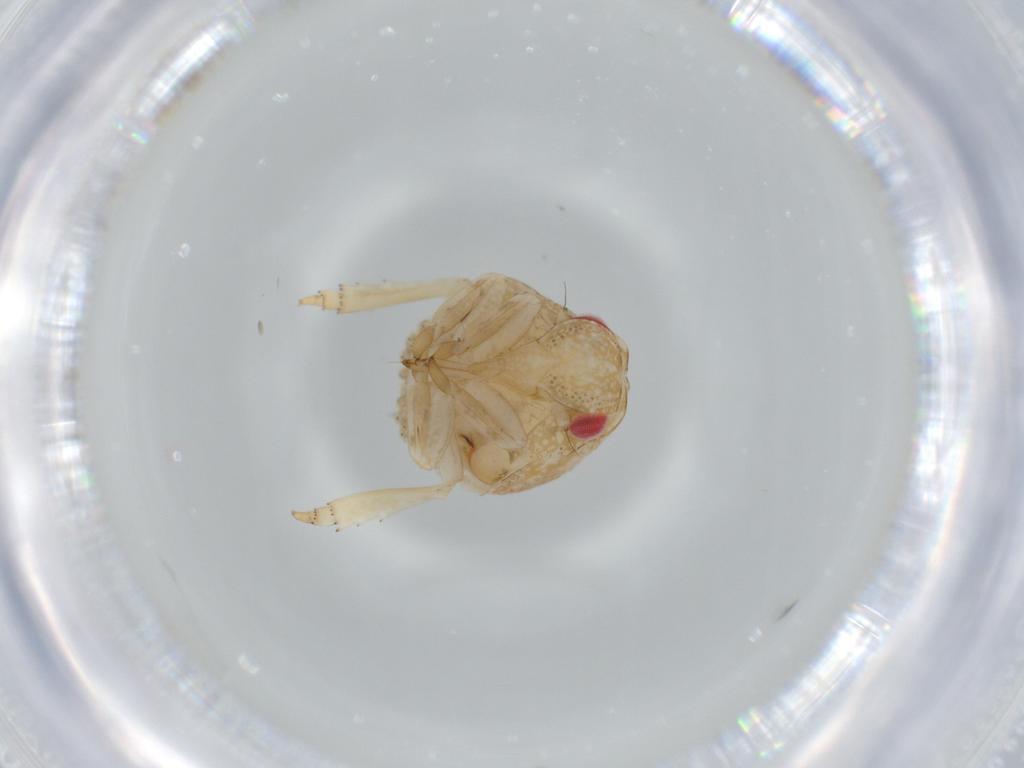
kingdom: Animalia
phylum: Arthropoda
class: Insecta
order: Hemiptera
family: Acanaloniidae
